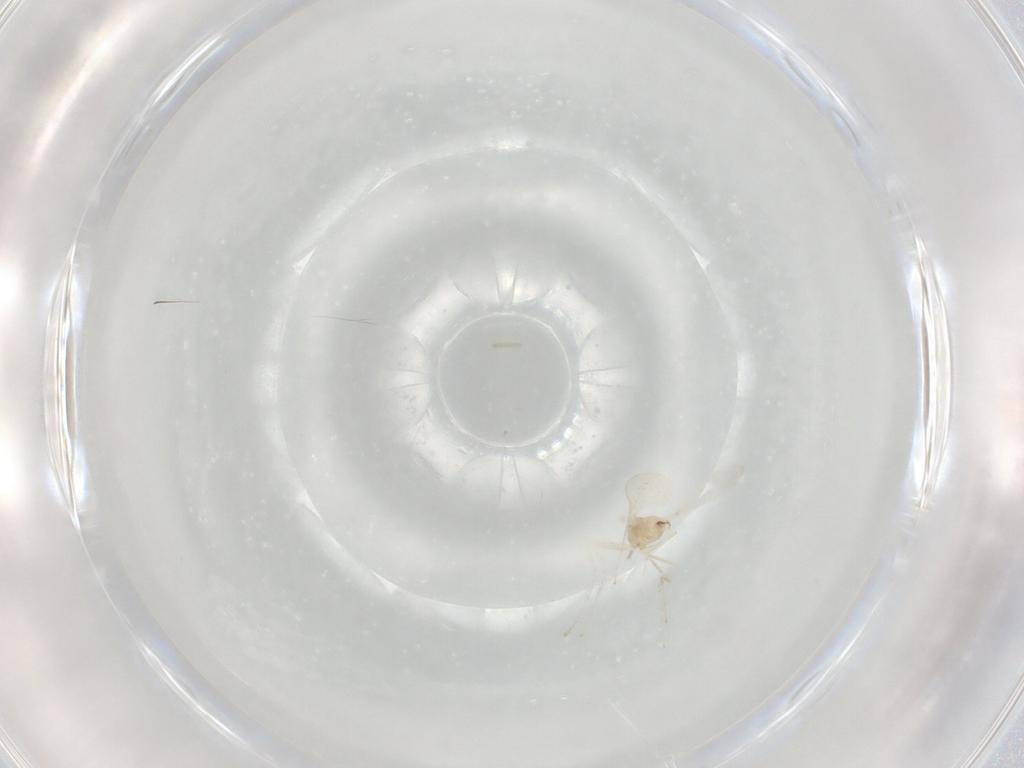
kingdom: Animalia
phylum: Arthropoda
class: Insecta
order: Diptera
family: Cecidomyiidae
